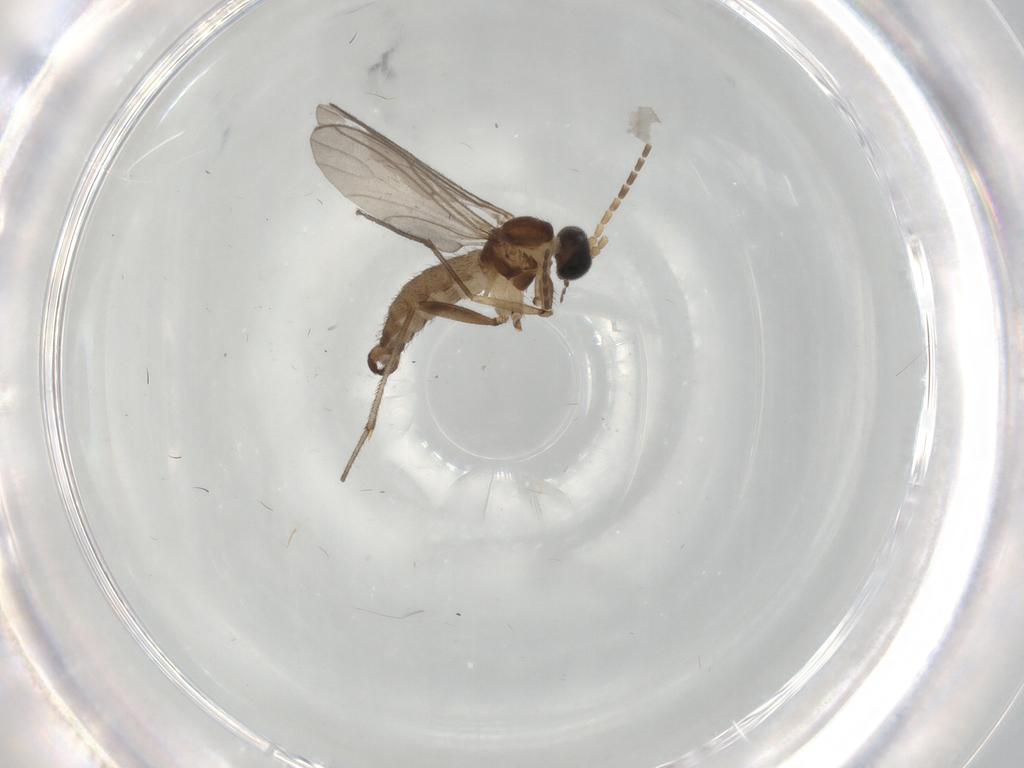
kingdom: Animalia
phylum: Arthropoda
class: Insecta
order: Diptera
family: Sciaridae
